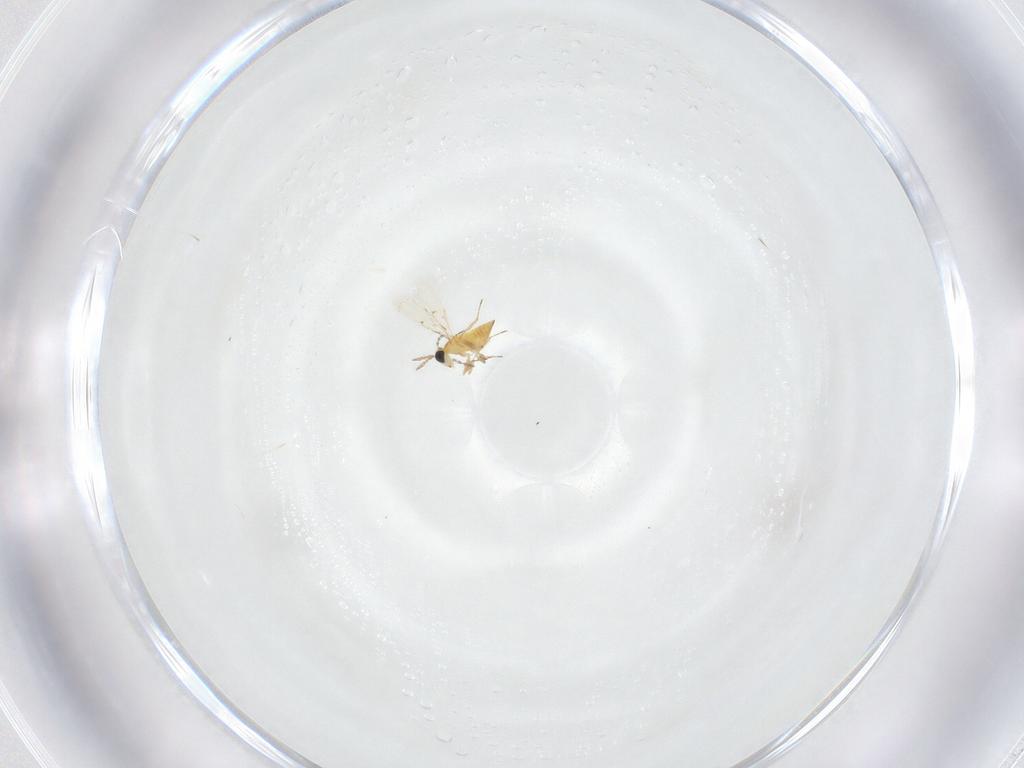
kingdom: Animalia
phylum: Arthropoda
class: Insecta
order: Hymenoptera
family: Trichogrammatidae
